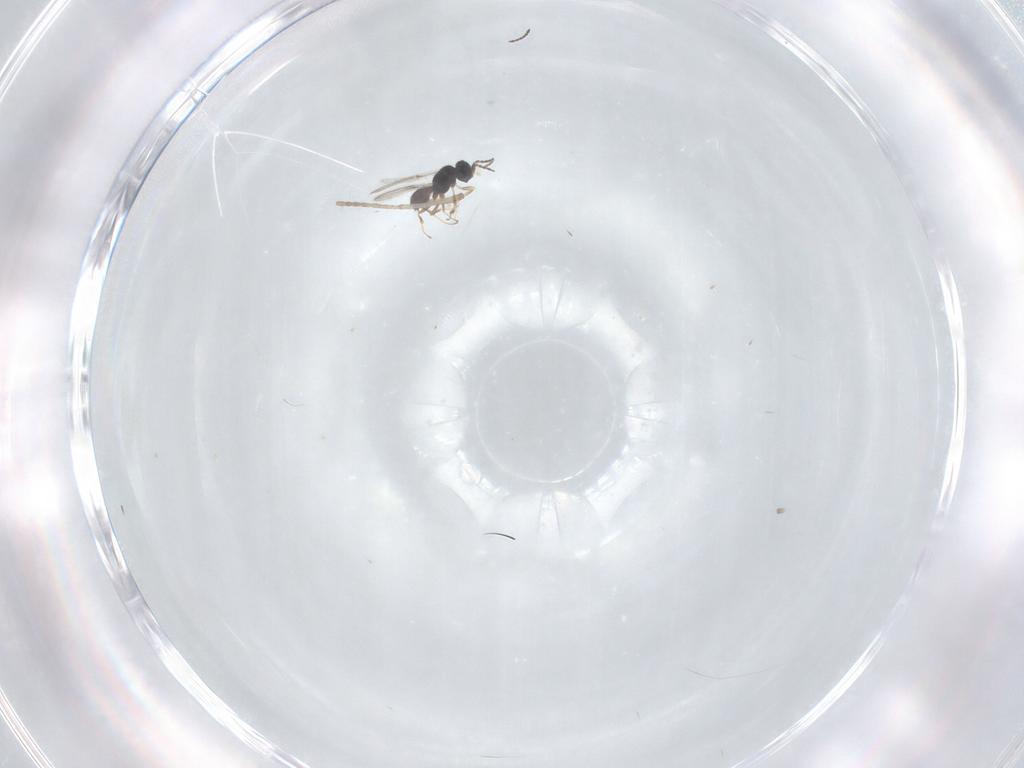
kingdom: Animalia
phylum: Arthropoda
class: Insecta
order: Hymenoptera
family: Scelionidae
